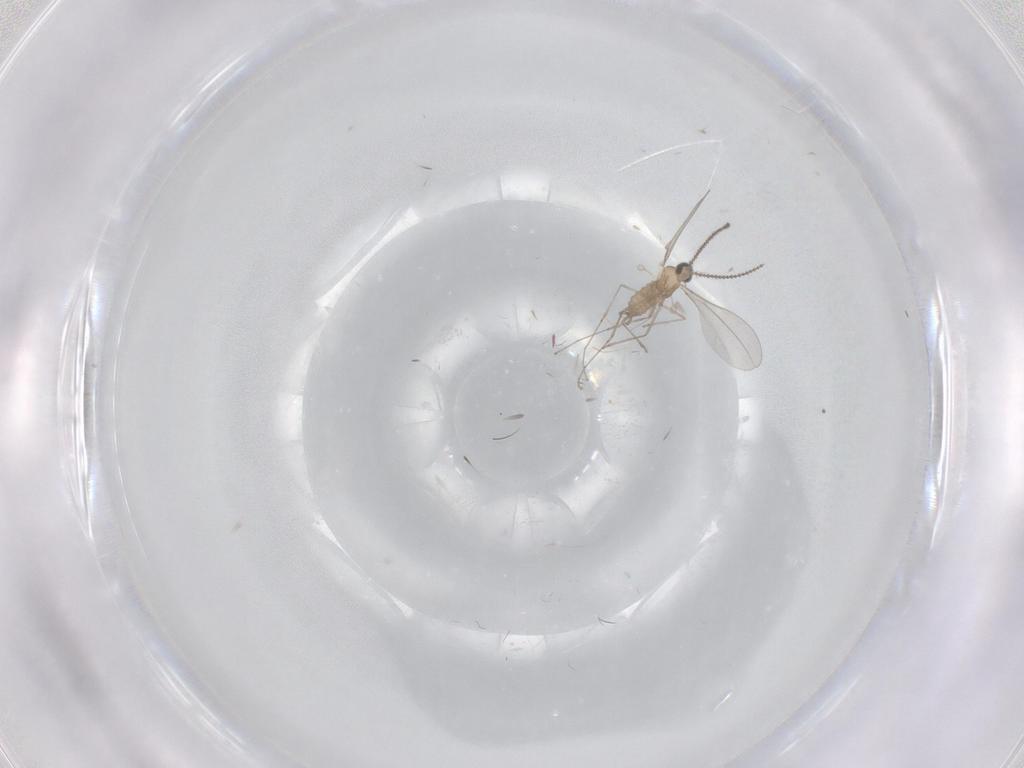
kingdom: Animalia
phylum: Arthropoda
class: Insecta
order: Diptera
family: Cecidomyiidae
